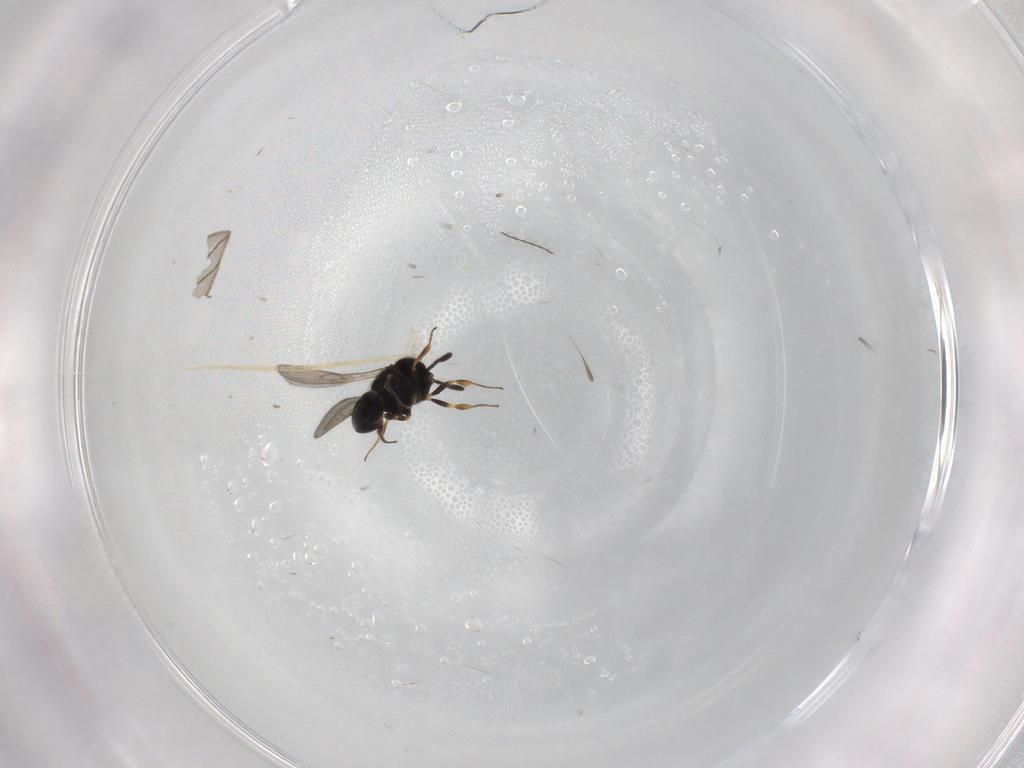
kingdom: Animalia
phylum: Arthropoda
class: Insecta
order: Hymenoptera
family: Scelionidae
